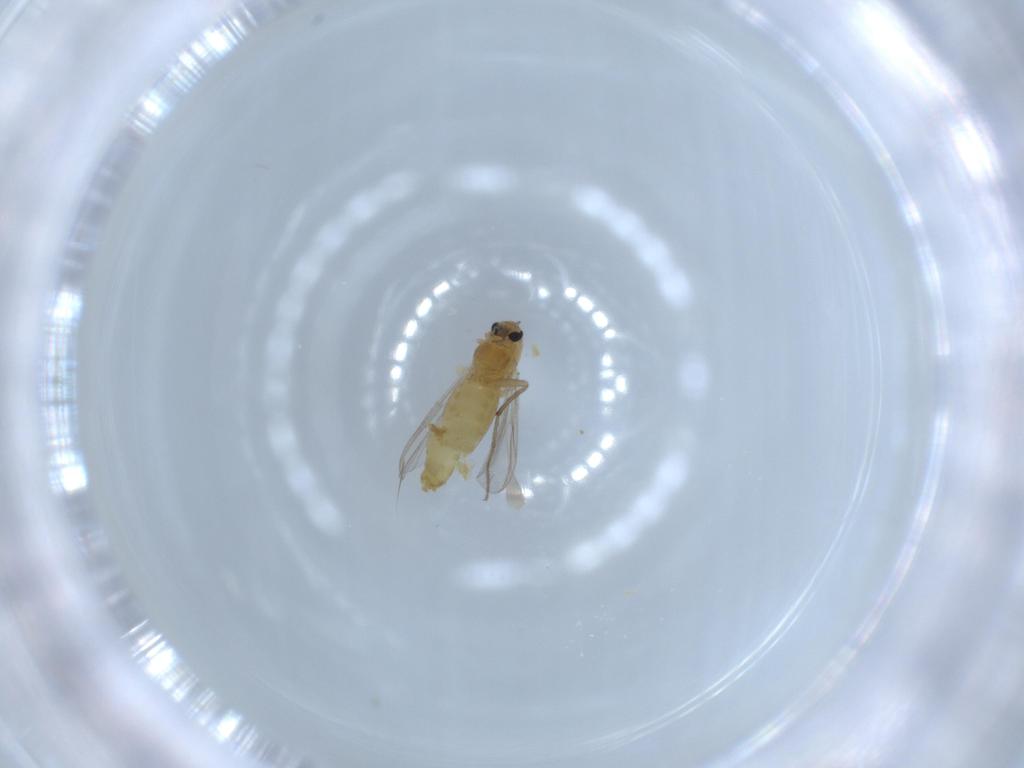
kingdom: Animalia
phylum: Arthropoda
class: Insecta
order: Diptera
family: Chironomidae
